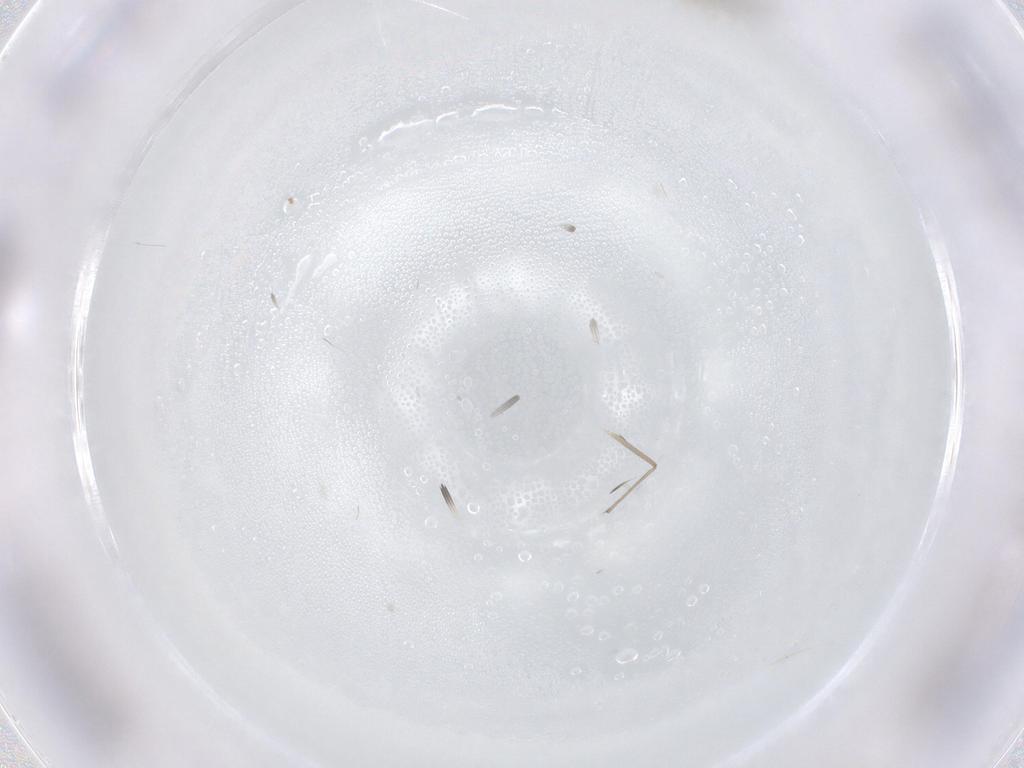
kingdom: Animalia
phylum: Arthropoda
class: Insecta
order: Diptera
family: Chironomidae
